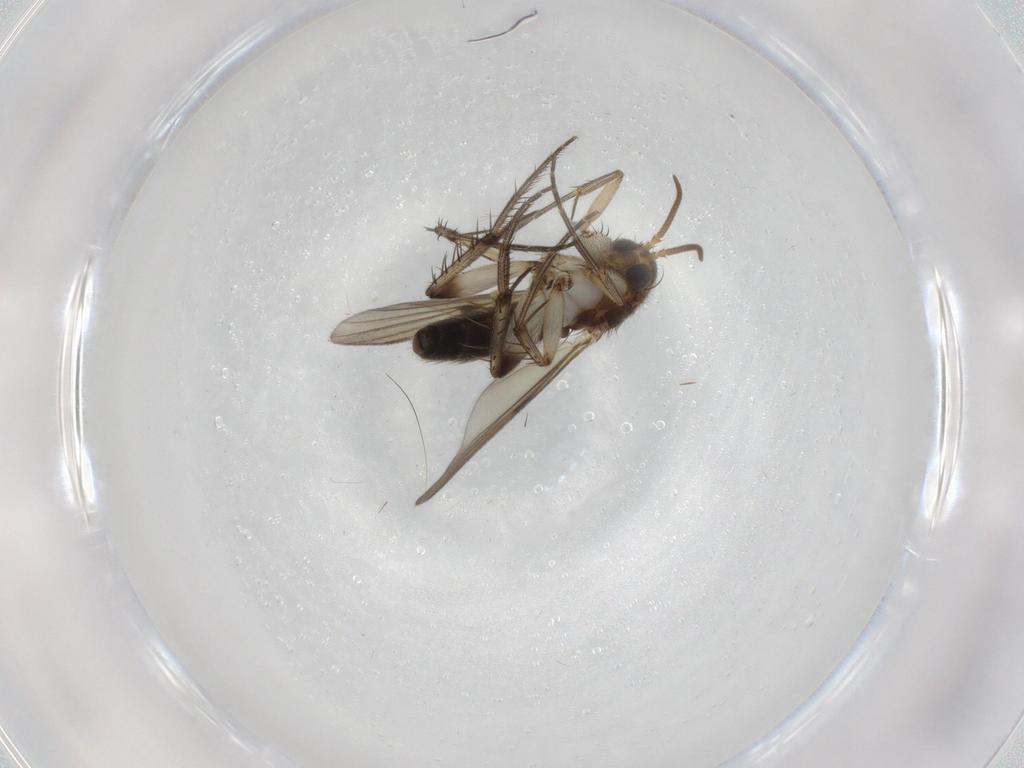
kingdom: Animalia
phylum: Arthropoda
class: Insecta
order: Diptera
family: Mycetophilidae
